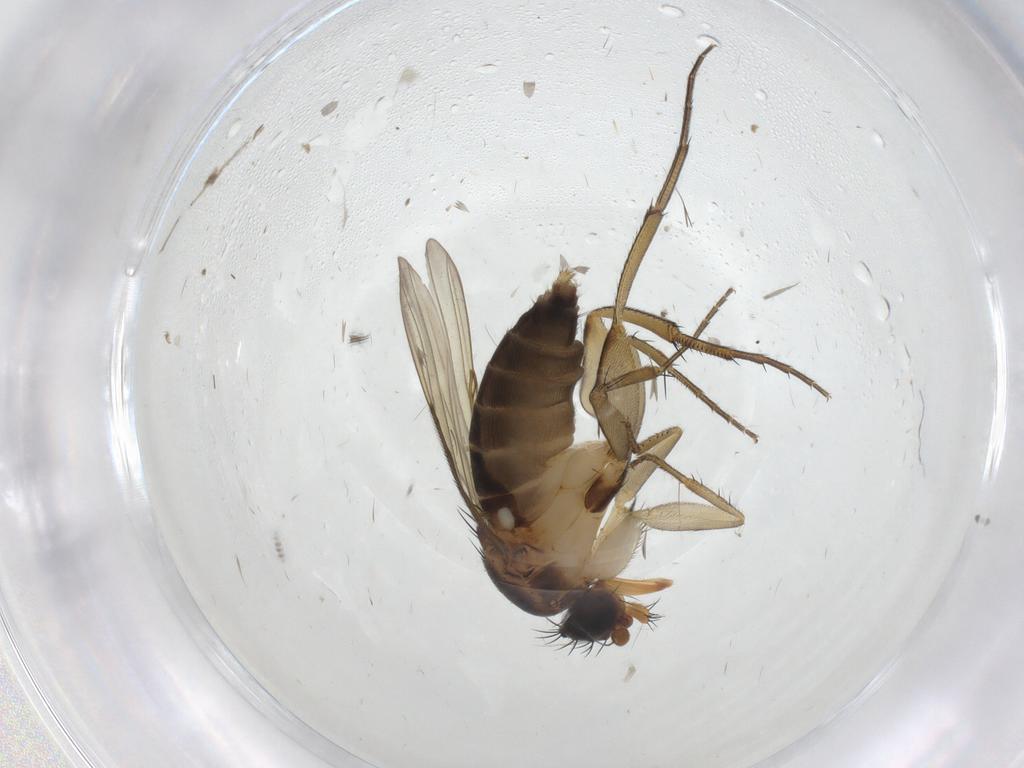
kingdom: Animalia
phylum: Arthropoda
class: Insecta
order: Diptera
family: Phoridae
